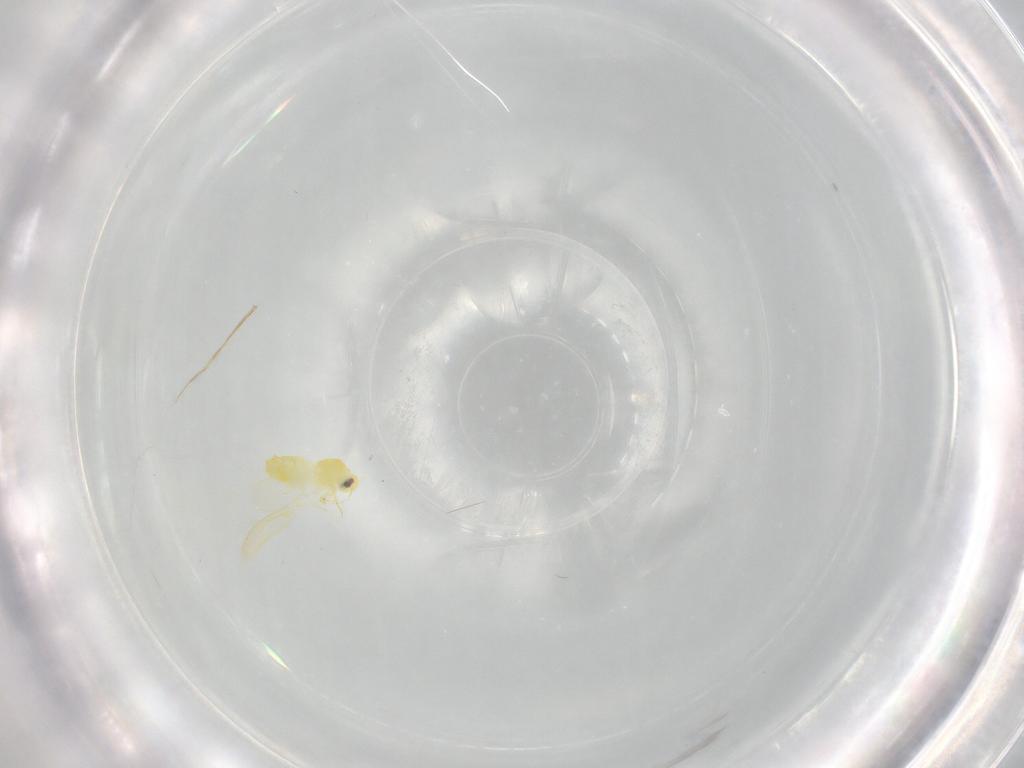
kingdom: Animalia
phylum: Arthropoda
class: Insecta
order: Hemiptera
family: Aleyrodidae
